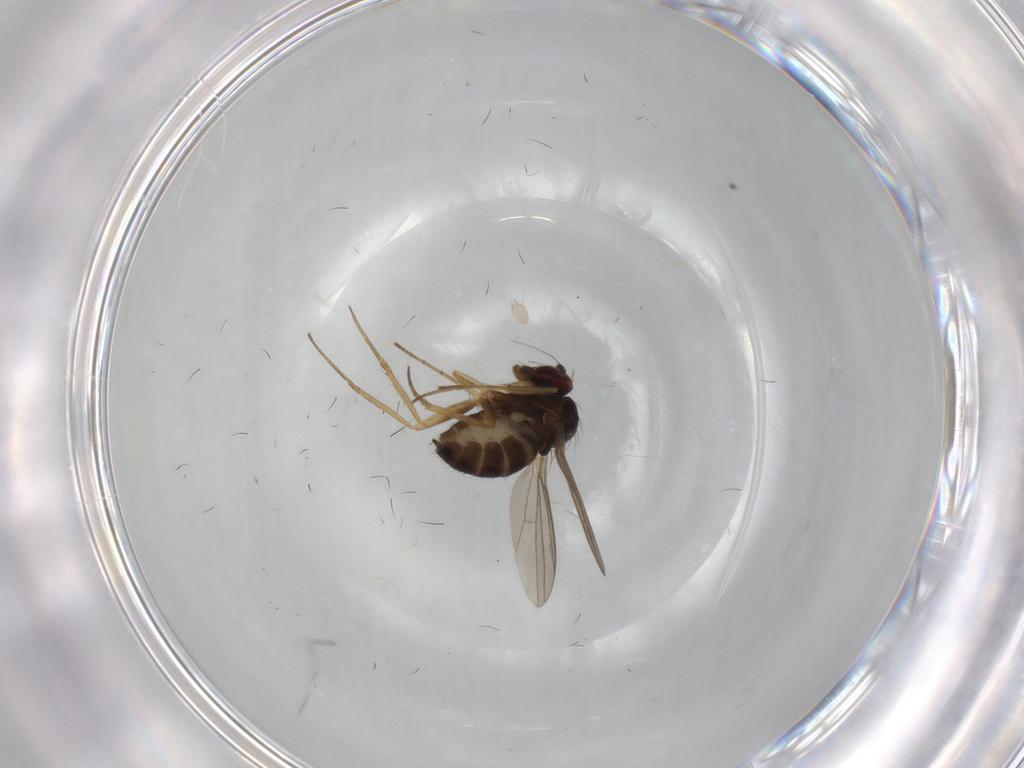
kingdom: Animalia
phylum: Arthropoda
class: Insecta
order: Diptera
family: Dolichopodidae
